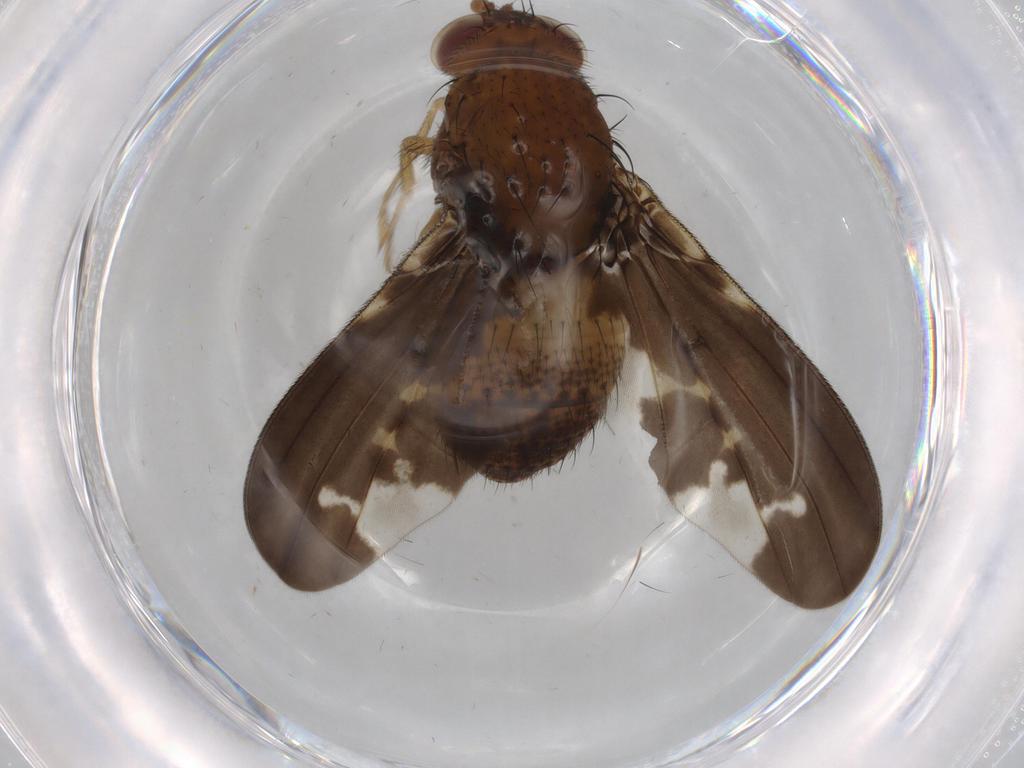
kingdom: Animalia
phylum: Arthropoda
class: Insecta
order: Diptera
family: Rhagionidae
